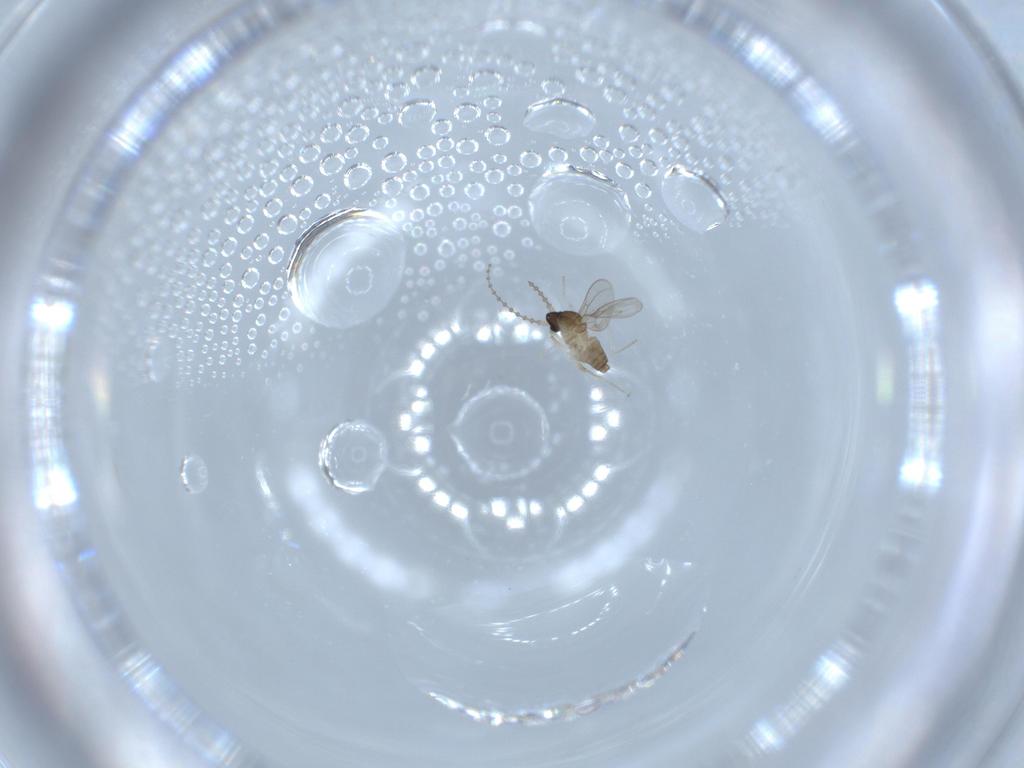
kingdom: Animalia
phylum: Arthropoda
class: Insecta
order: Diptera
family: Cecidomyiidae
